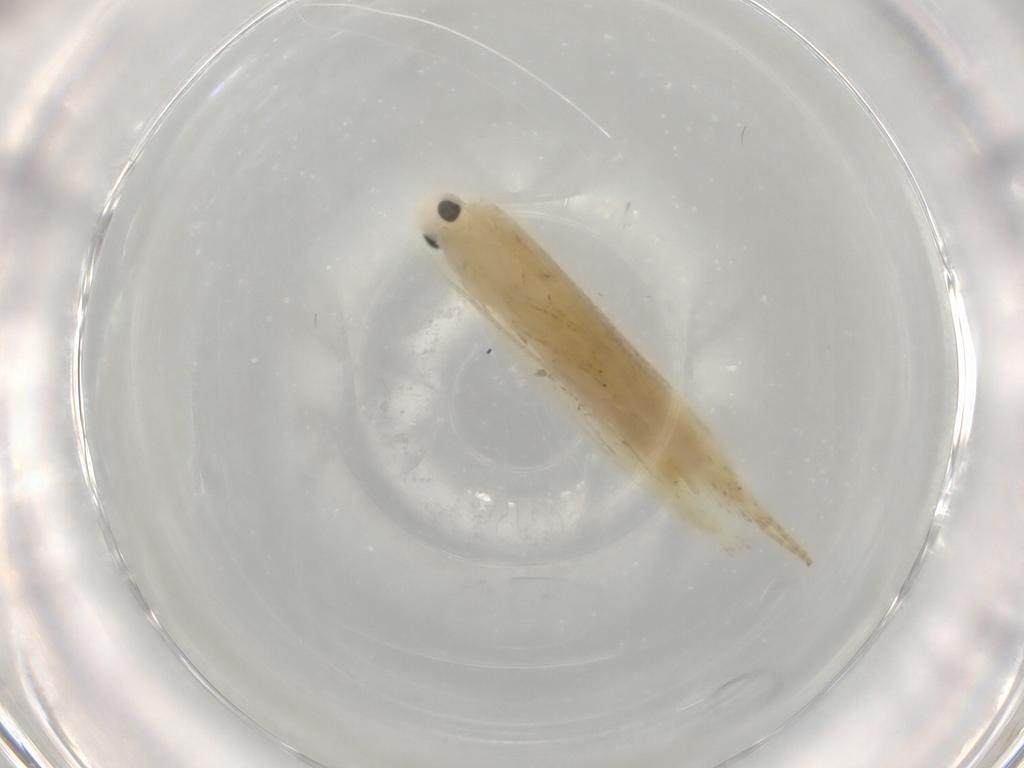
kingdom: Animalia
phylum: Arthropoda
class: Insecta
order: Lepidoptera
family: Gelechiidae
